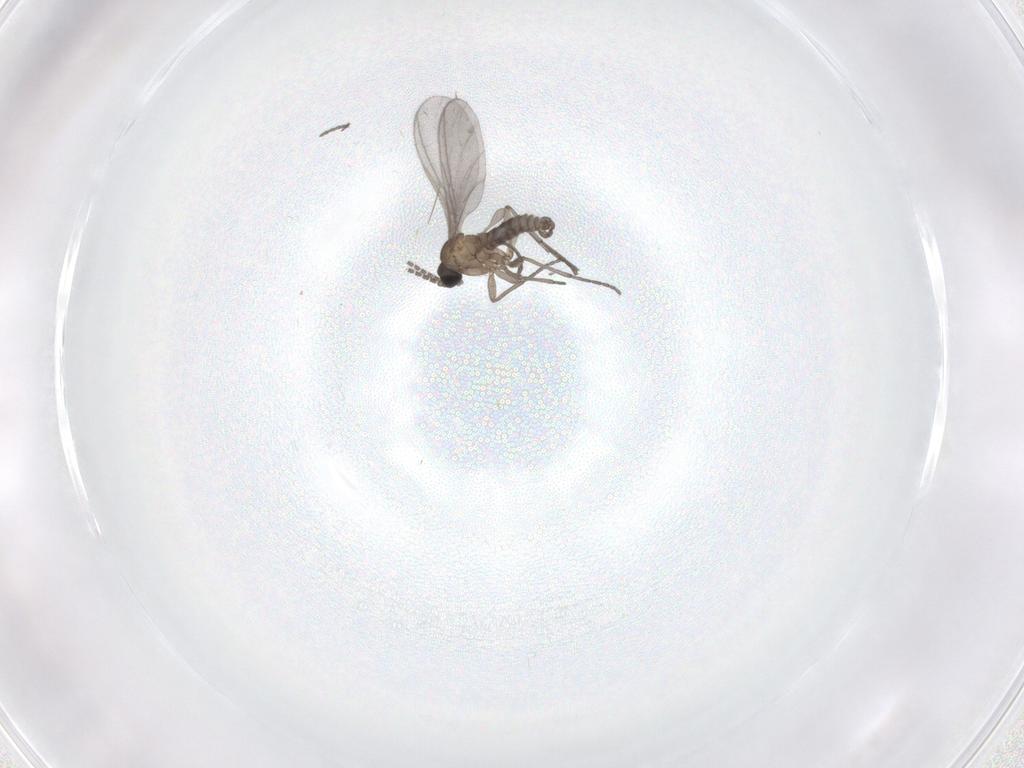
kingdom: Animalia
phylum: Arthropoda
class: Insecta
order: Diptera
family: Sciaridae
